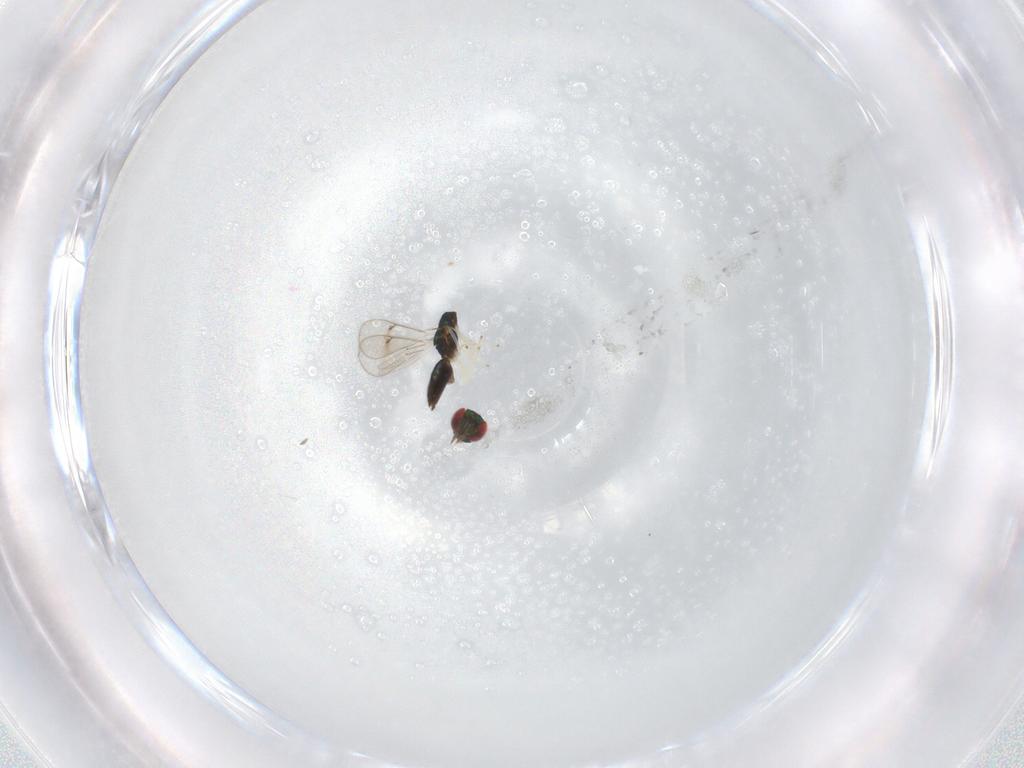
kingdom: Animalia
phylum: Arthropoda
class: Insecta
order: Hymenoptera
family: Eulophidae
